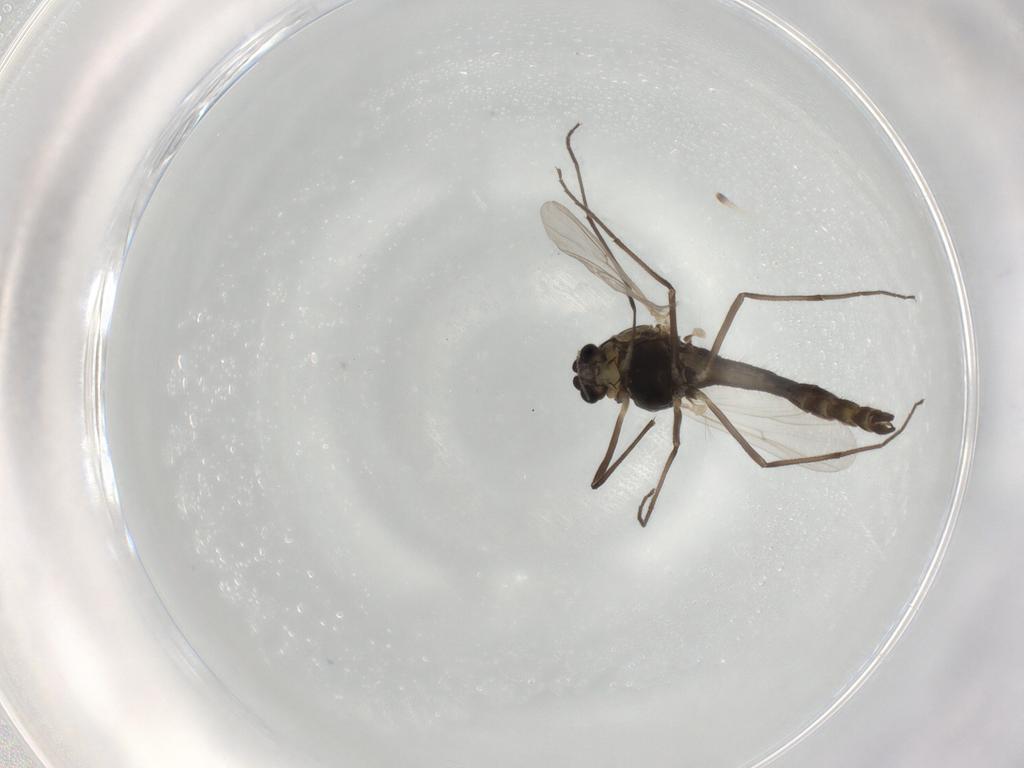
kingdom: Animalia
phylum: Arthropoda
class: Insecta
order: Diptera
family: Chironomidae
